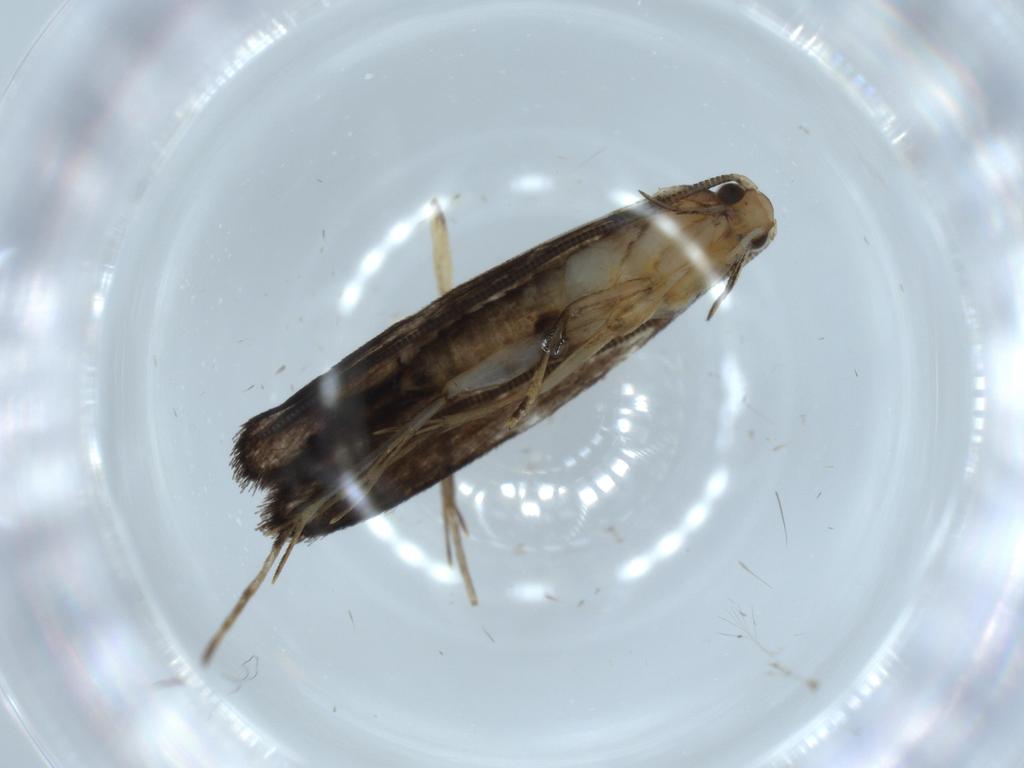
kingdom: Animalia
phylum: Arthropoda
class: Insecta
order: Lepidoptera
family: Tineidae
